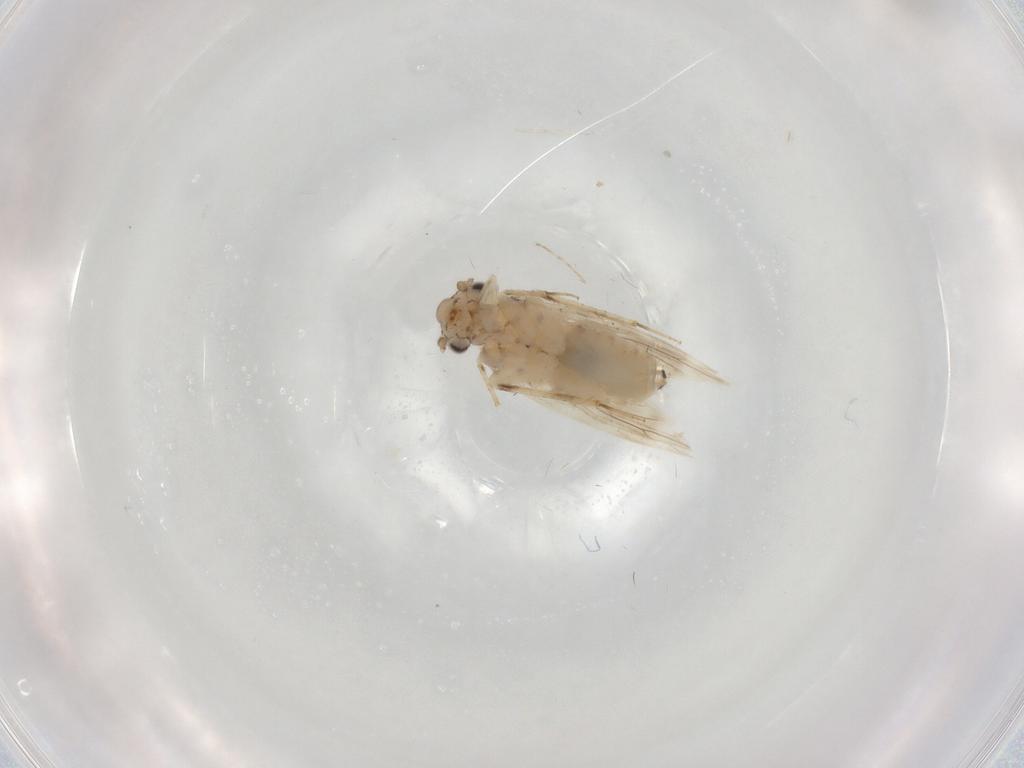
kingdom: Animalia
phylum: Arthropoda
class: Insecta
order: Psocodea
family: Lepidopsocidae
